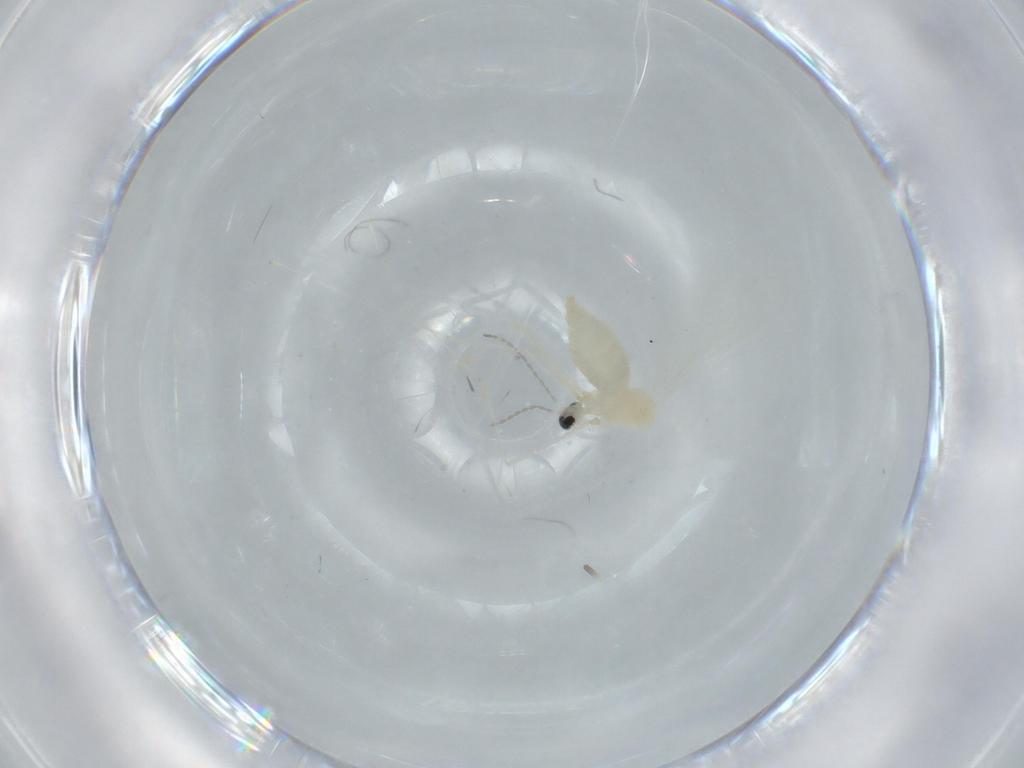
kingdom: Animalia
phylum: Arthropoda
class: Insecta
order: Diptera
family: Cecidomyiidae
